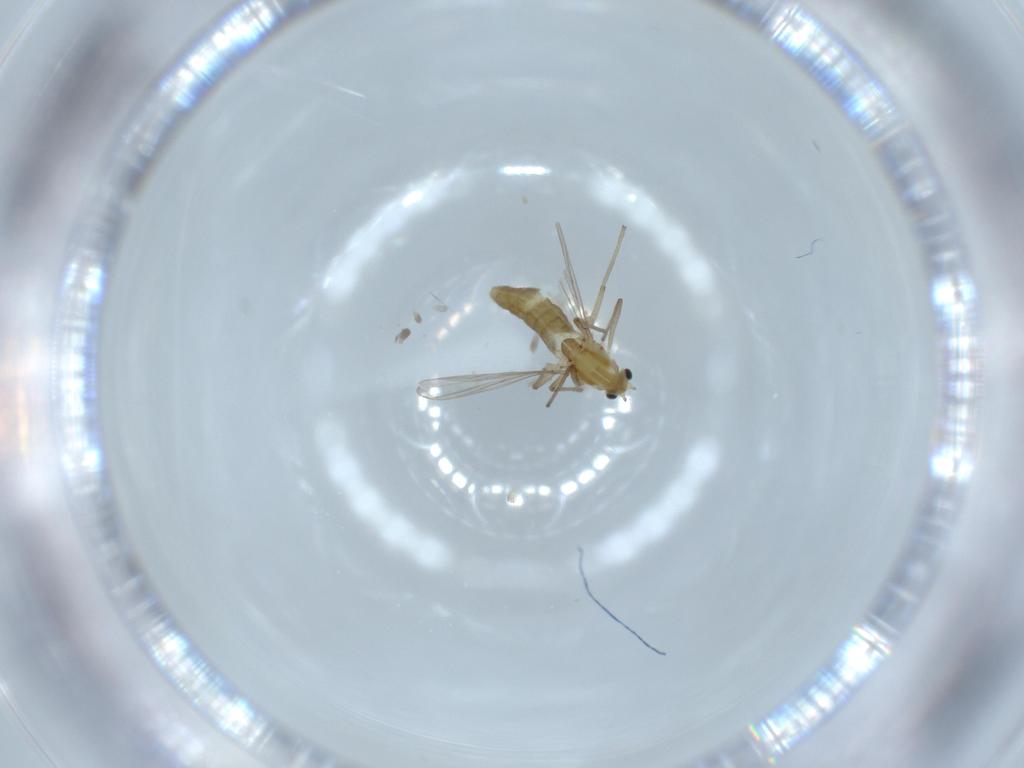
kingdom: Animalia
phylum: Arthropoda
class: Insecta
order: Diptera
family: Chironomidae
